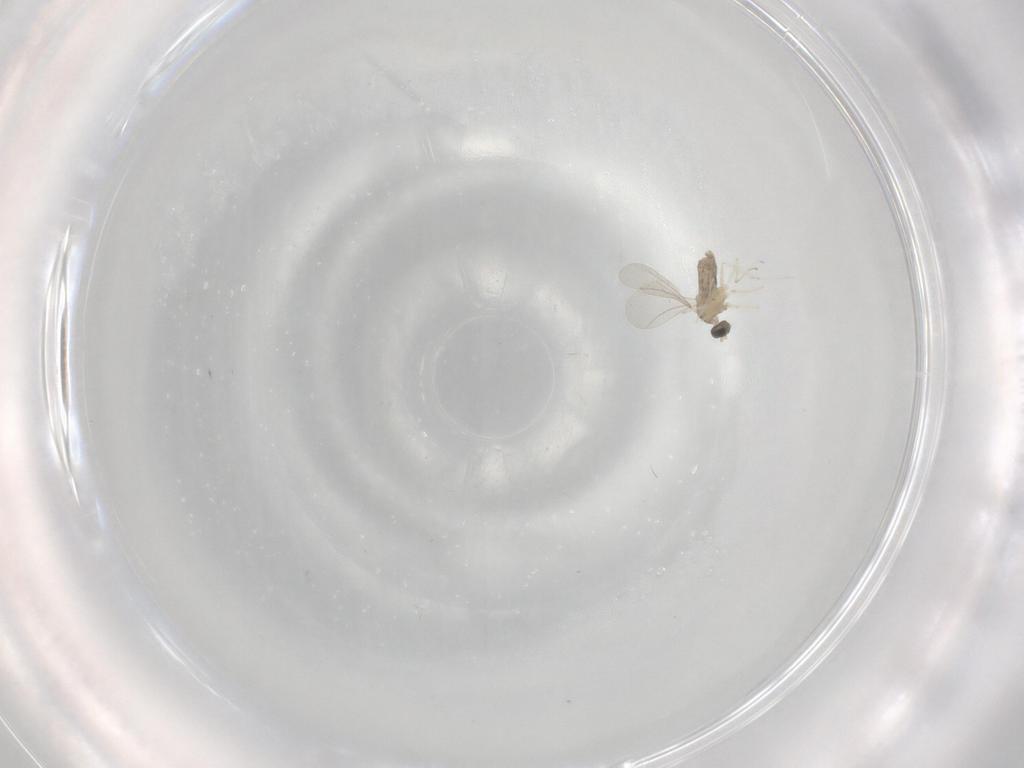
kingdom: Animalia
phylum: Arthropoda
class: Insecta
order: Diptera
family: Cecidomyiidae
